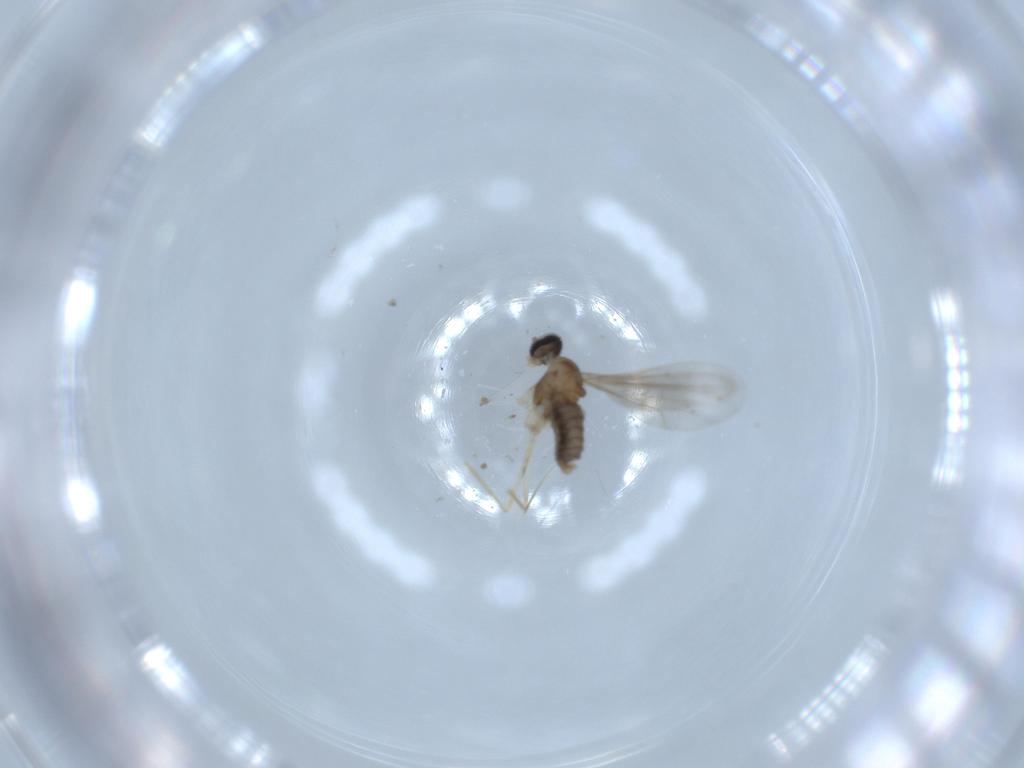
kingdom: Animalia
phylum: Arthropoda
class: Insecta
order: Diptera
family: Cecidomyiidae
